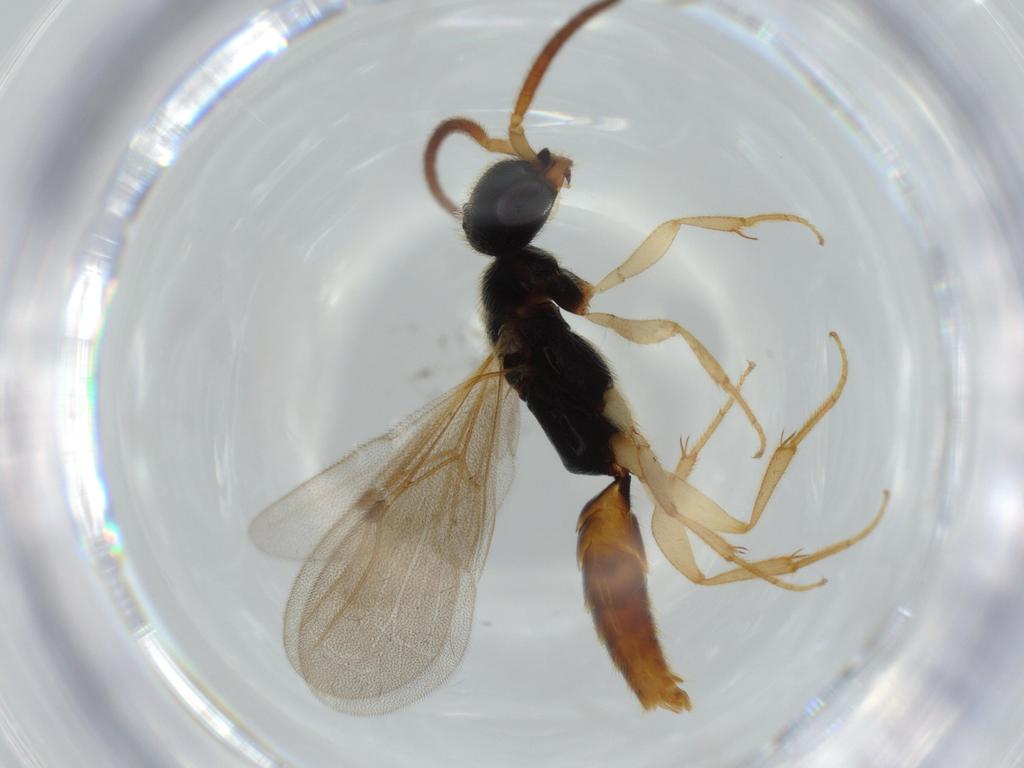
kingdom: Animalia
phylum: Arthropoda
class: Insecta
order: Hymenoptera
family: Bethylidae
